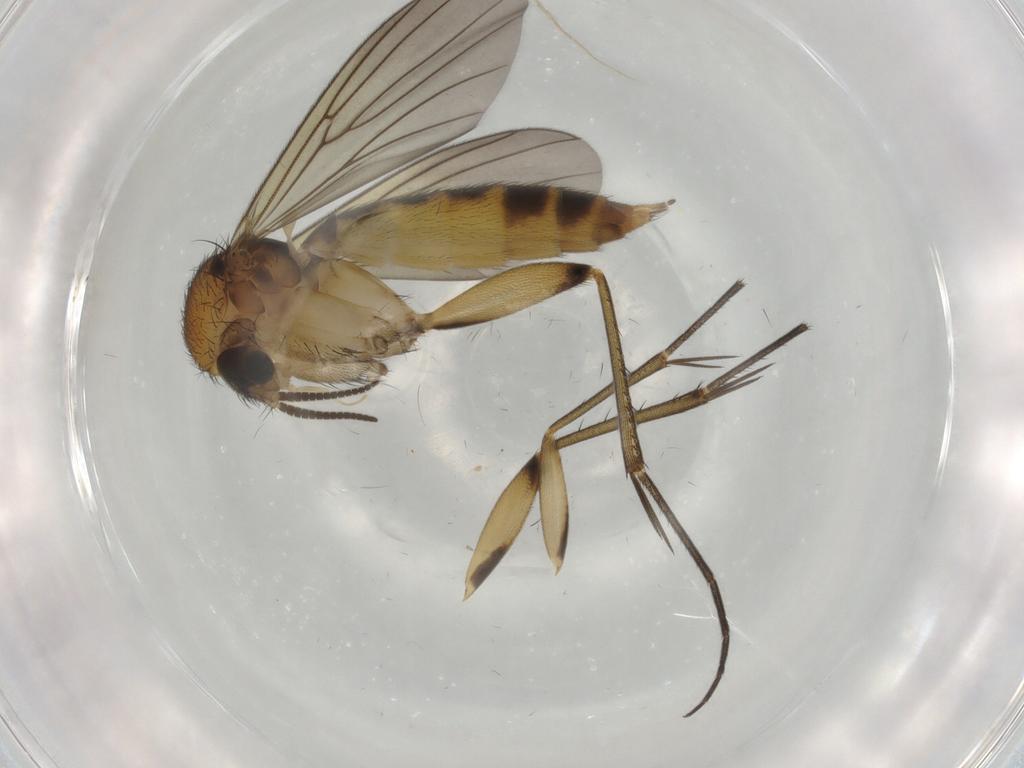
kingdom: Animalia
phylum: Arthropoda
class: Insecta
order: Diptera
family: Mycetophilidae
